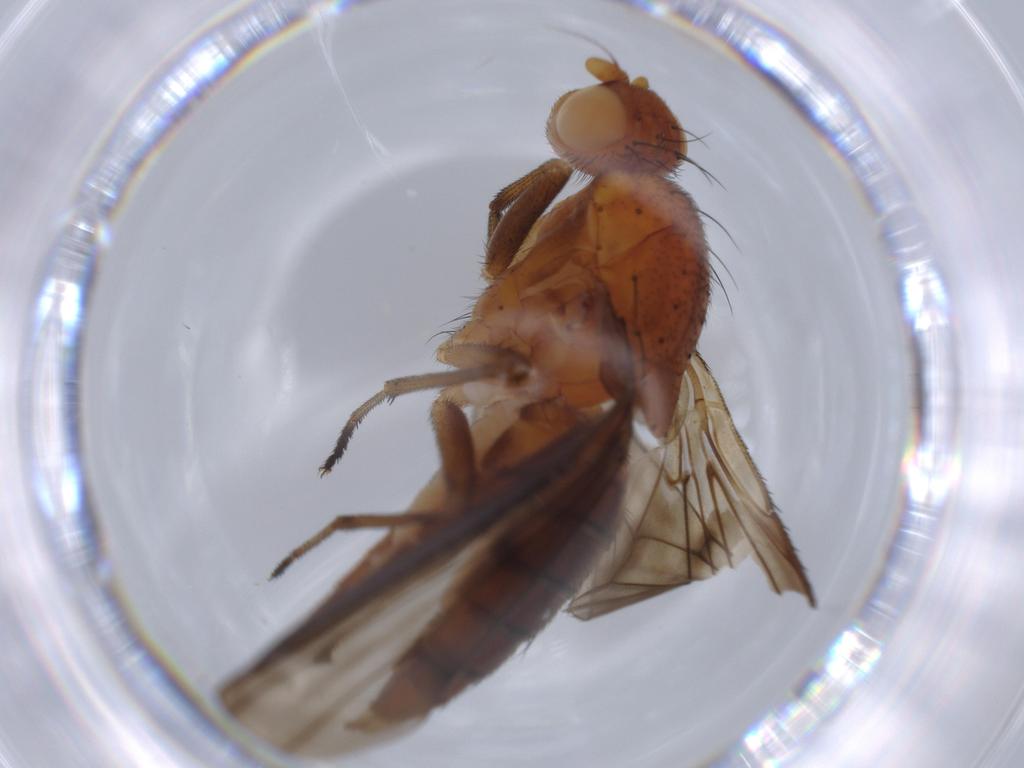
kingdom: Animalia
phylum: Arthropoda
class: Insecta
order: Diptera
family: Heleomyzidae
